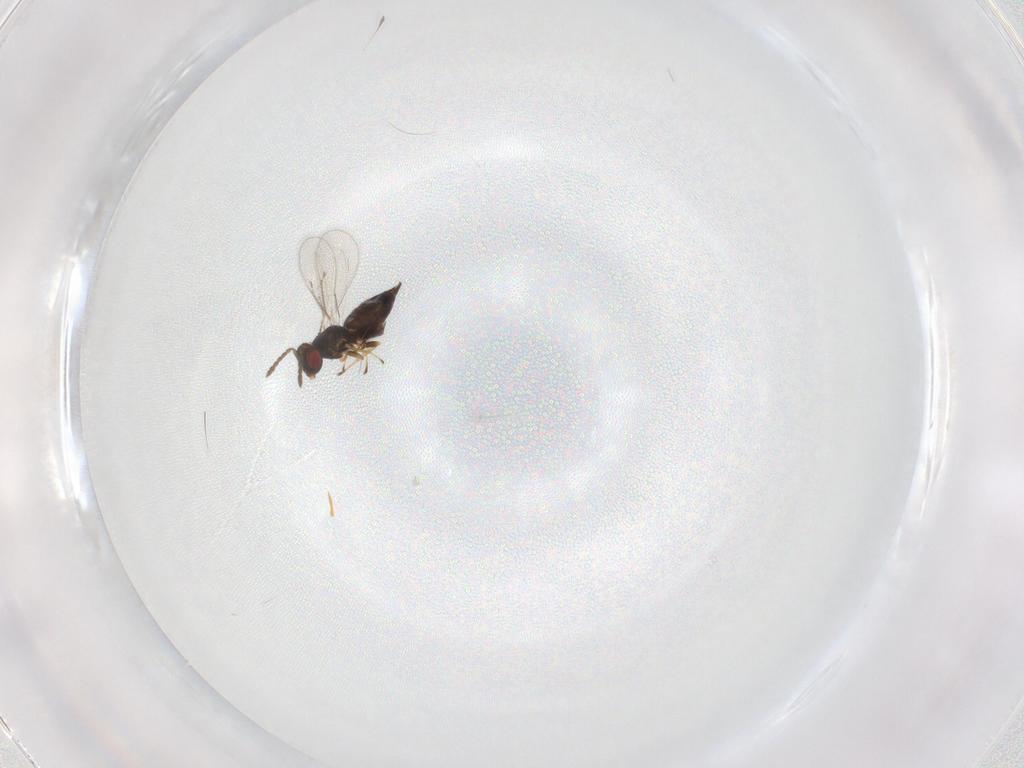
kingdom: Animalia
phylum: Arthropoda
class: Insecta
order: Hymenoptera
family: Eulophidae
